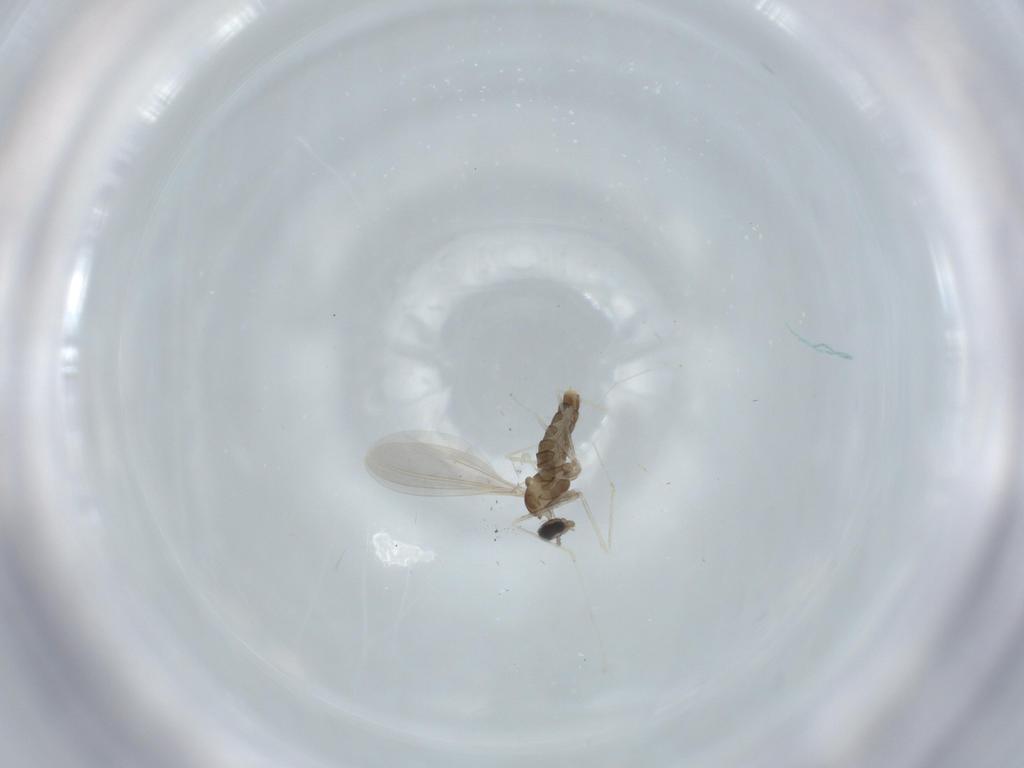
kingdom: Animalia
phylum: Arthropoda
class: Insecta
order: Diptera
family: Cecidomyiidae
